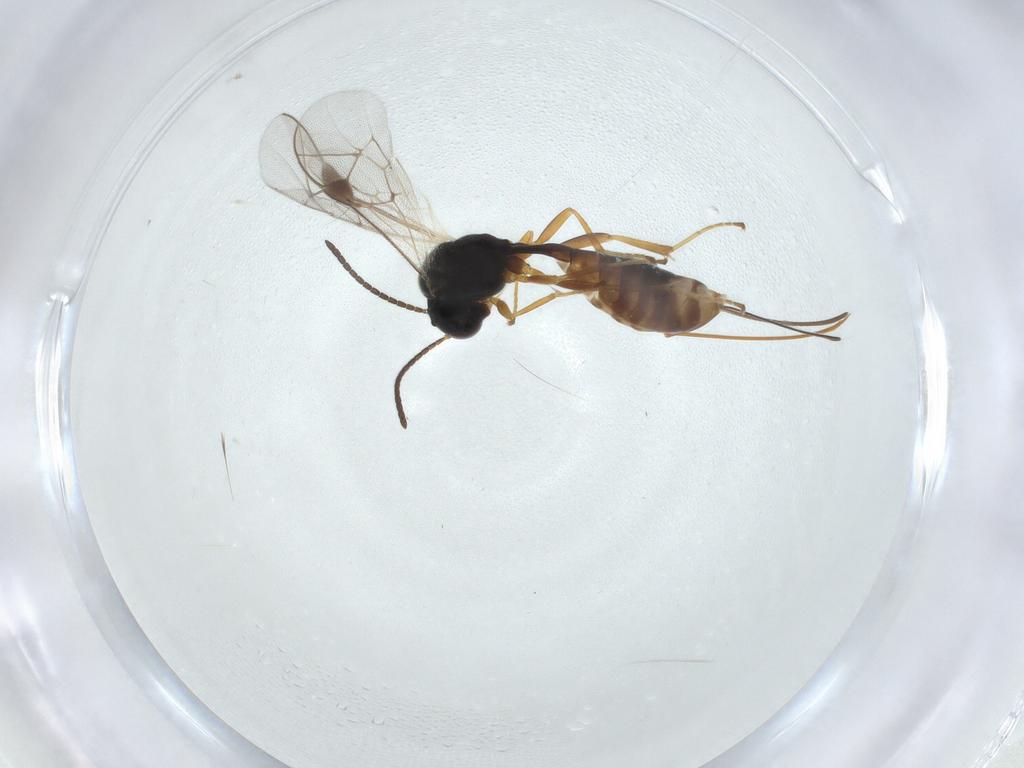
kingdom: Animalia
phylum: Arthropoda
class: Insecta
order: Hymenoptera
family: Ichneumonidae
